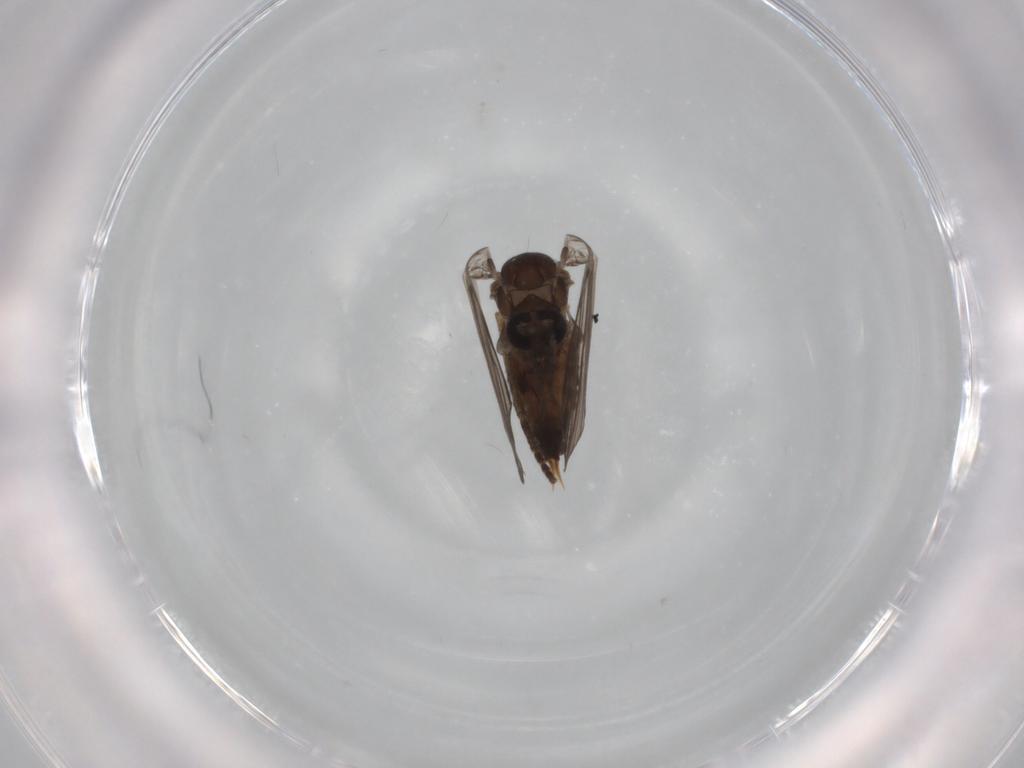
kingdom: Animalia
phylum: Arthropoda
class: Insecta
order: Diptera
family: Psychodidae
